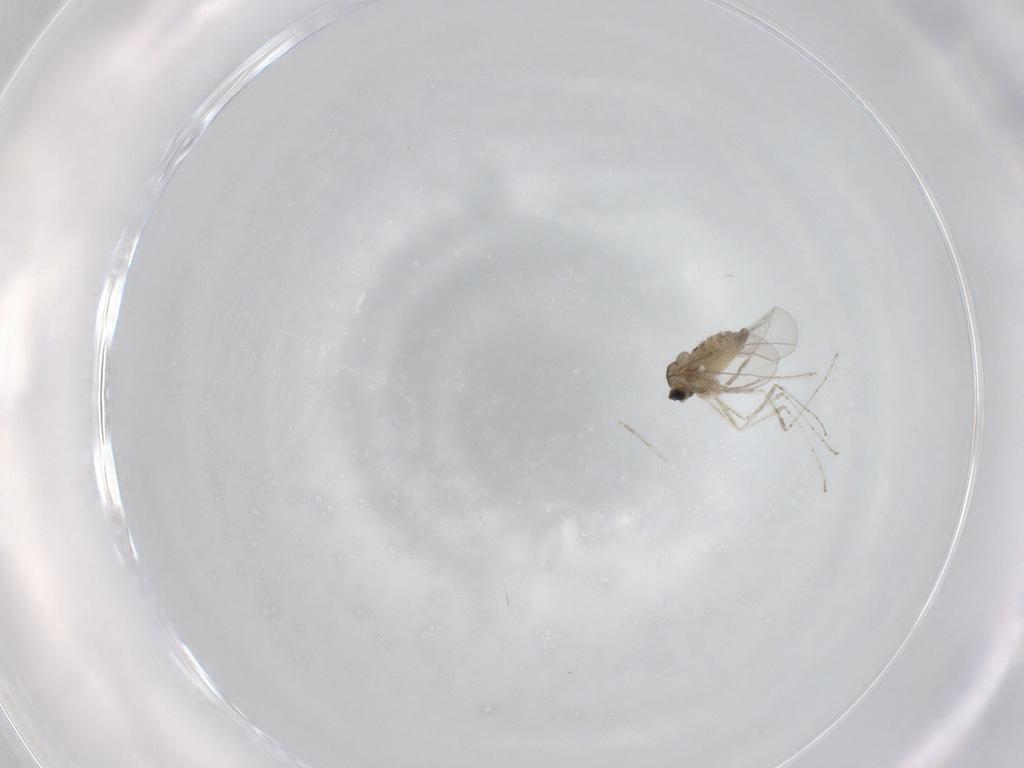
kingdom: Animalia
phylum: Arthropoda
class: Insecta
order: Diptera
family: Cecidomyiidae
